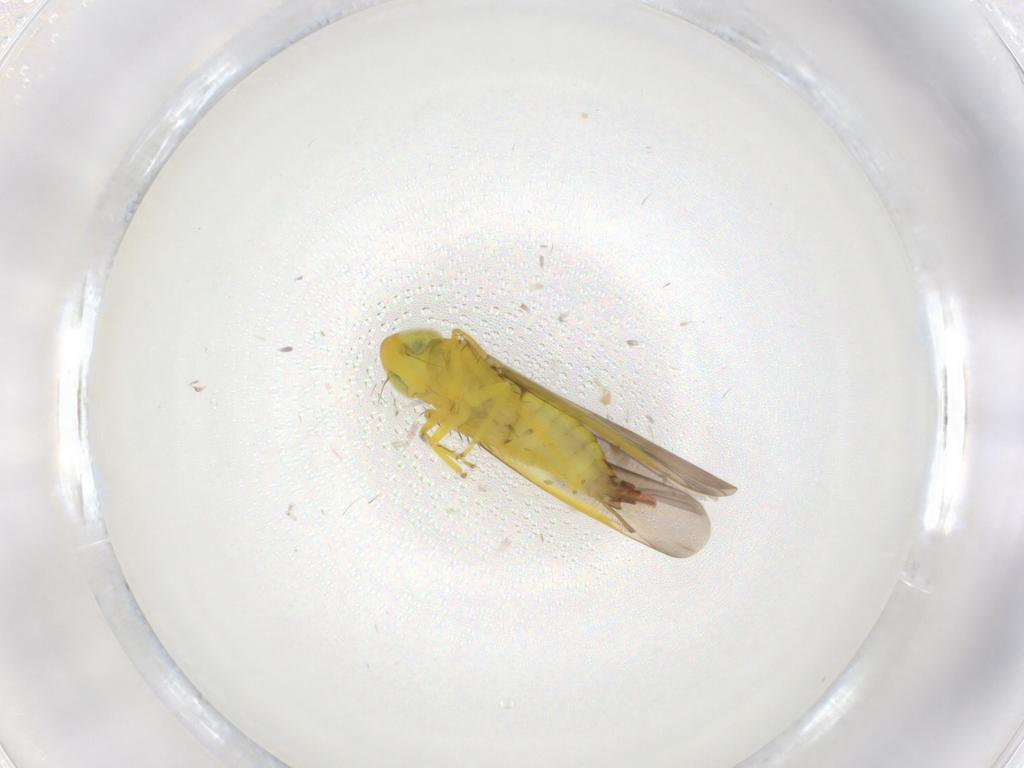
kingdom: Animalia
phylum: Arthropoda
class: Insecta
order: Hemiptera
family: Cicadellidae
